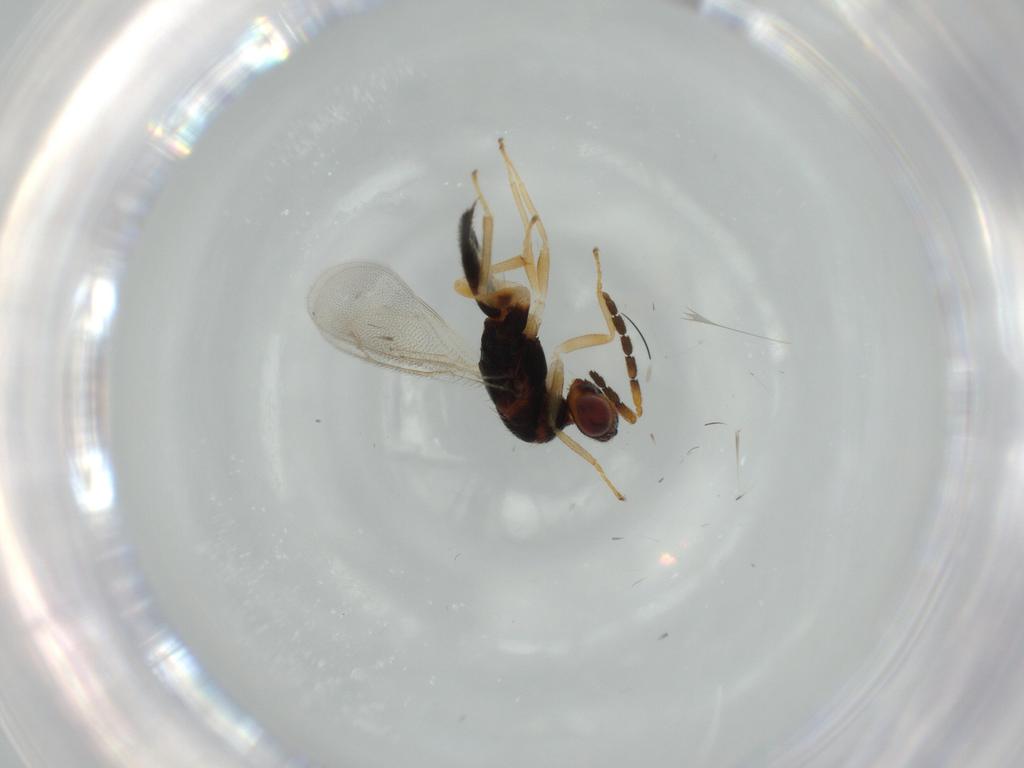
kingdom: Animalia
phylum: Arthropoda
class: Insecta
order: Hymenoptera
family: Eulophidae
